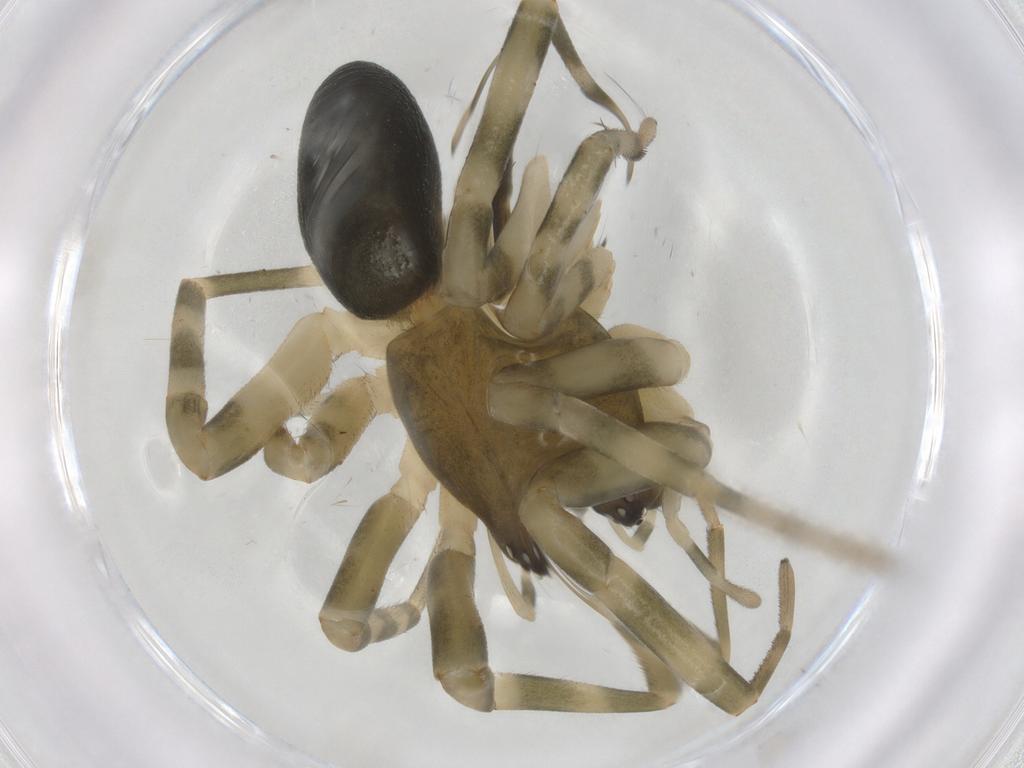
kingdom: Animalia
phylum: Arthropoda
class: Arachnida
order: Araneae
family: Trachelidae
